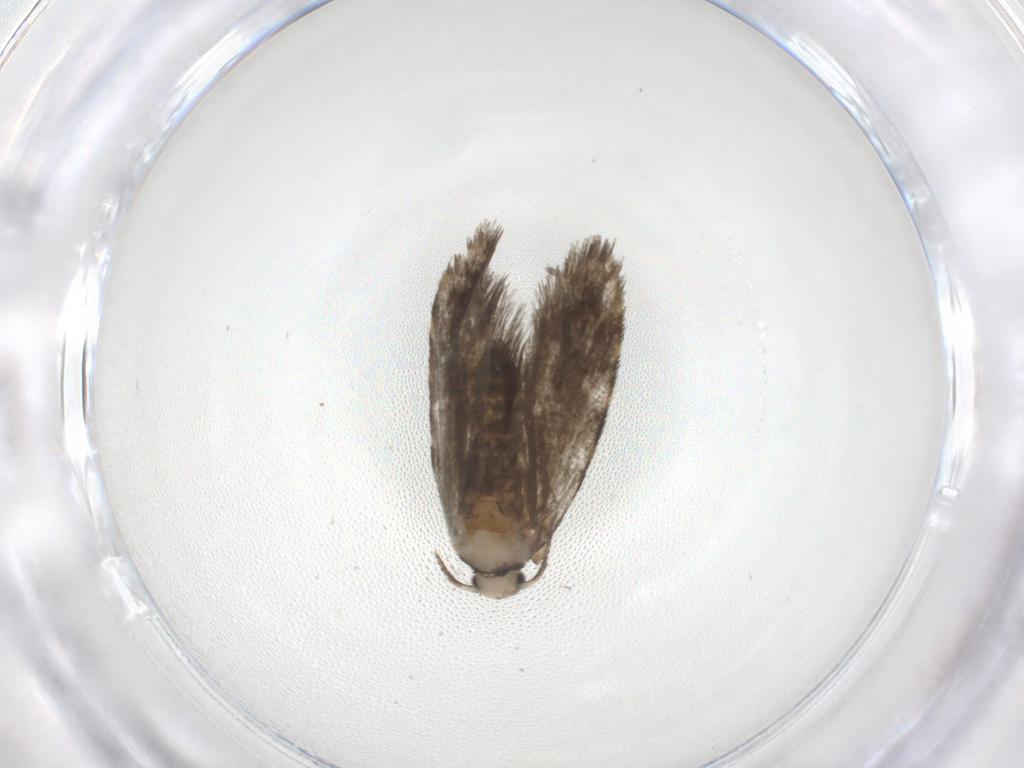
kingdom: Animalia
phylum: Arthropoda
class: Insecta
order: Lepidoptera
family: Psychidae
